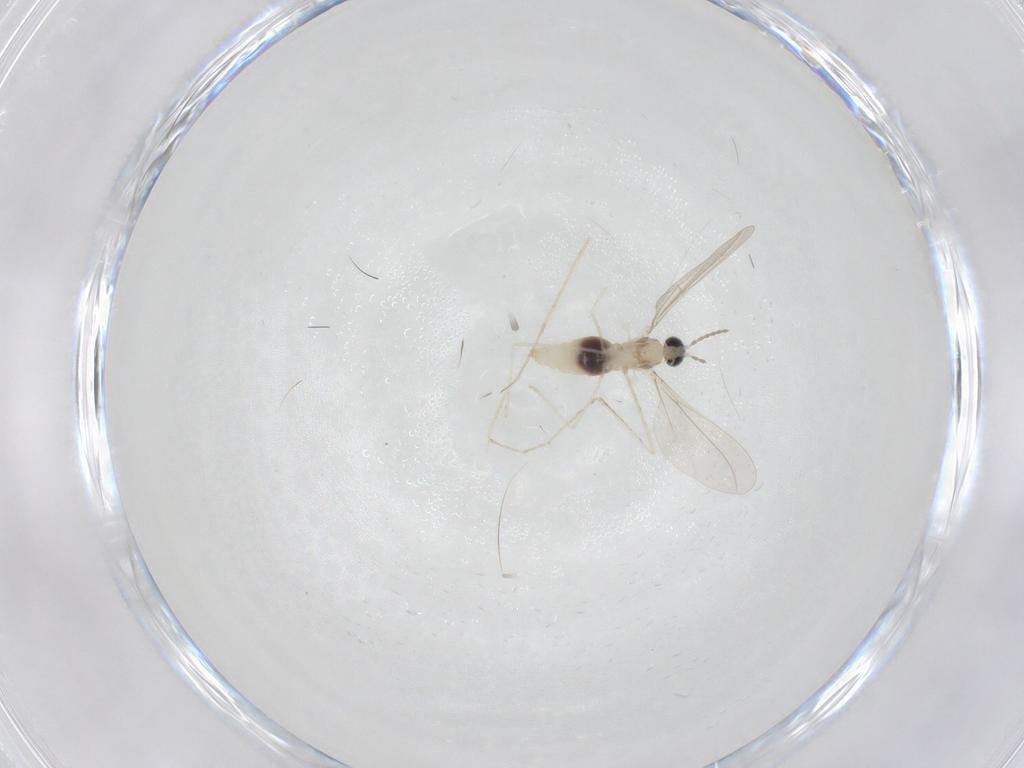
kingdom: Animalia
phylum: Arthropoda
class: Insecta
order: Diptera
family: Cecidomyiidae
